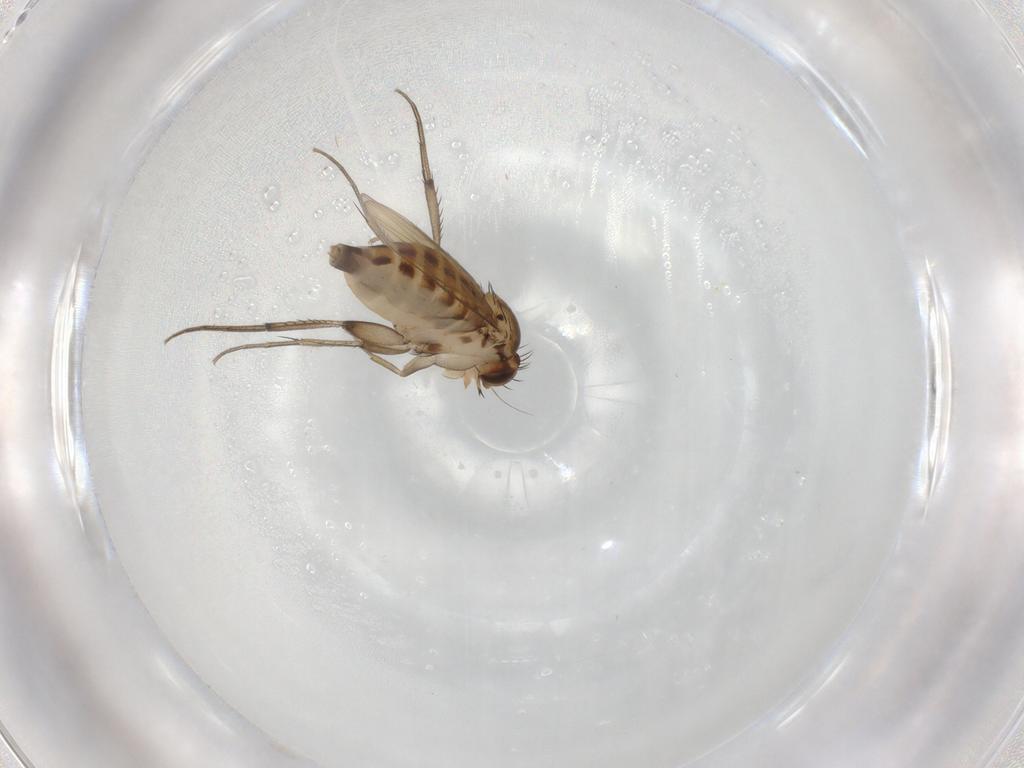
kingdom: Animalia
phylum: Arthropoda
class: Insecta
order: Diptera
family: Phoridae
